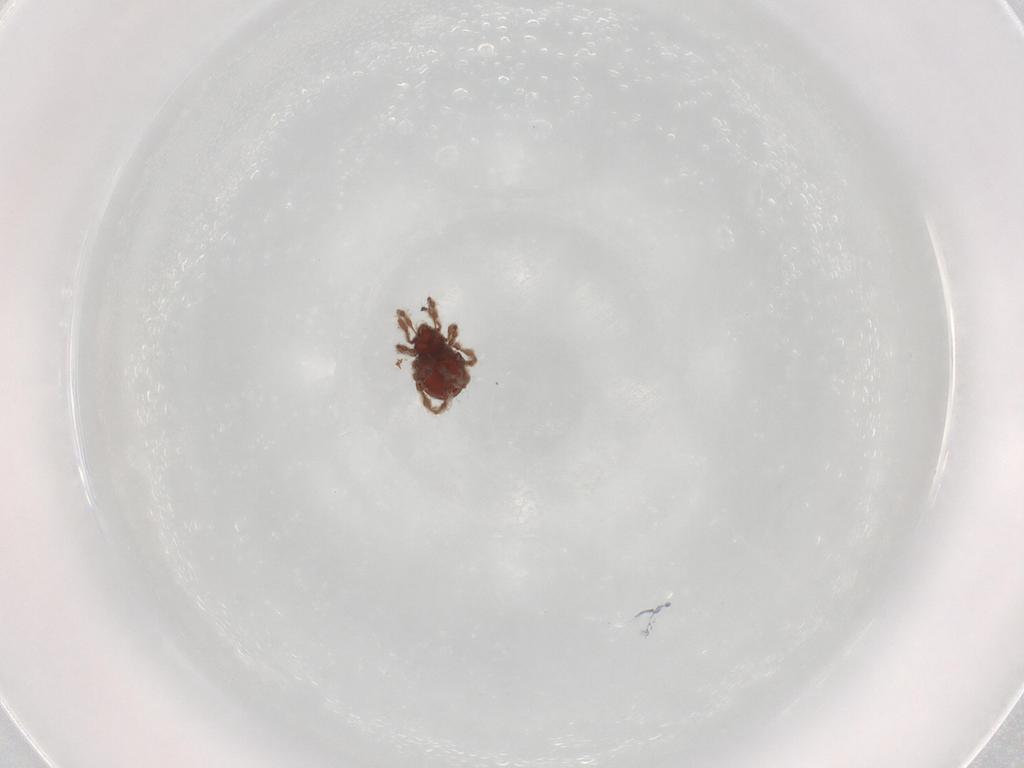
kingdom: Animalia
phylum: Arthropoda
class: Arachnida
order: Sarcoptiformes
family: Damaeidae
